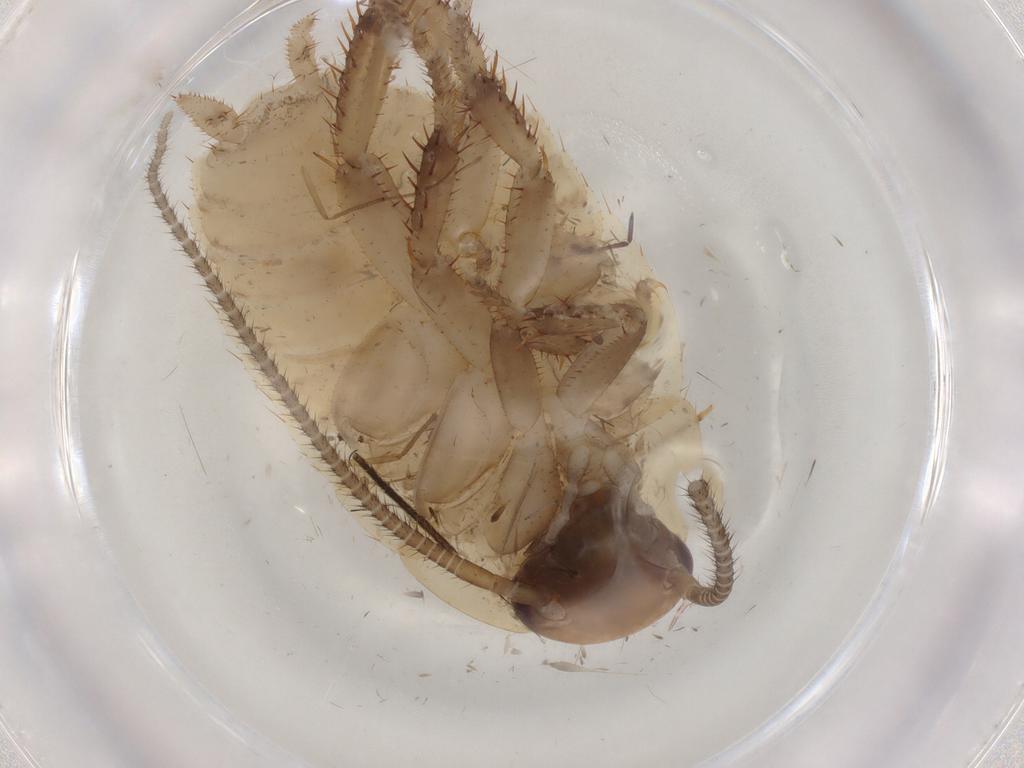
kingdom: Animalia
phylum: Arthropoda
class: Insecta
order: Blattodea
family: Blattidae
